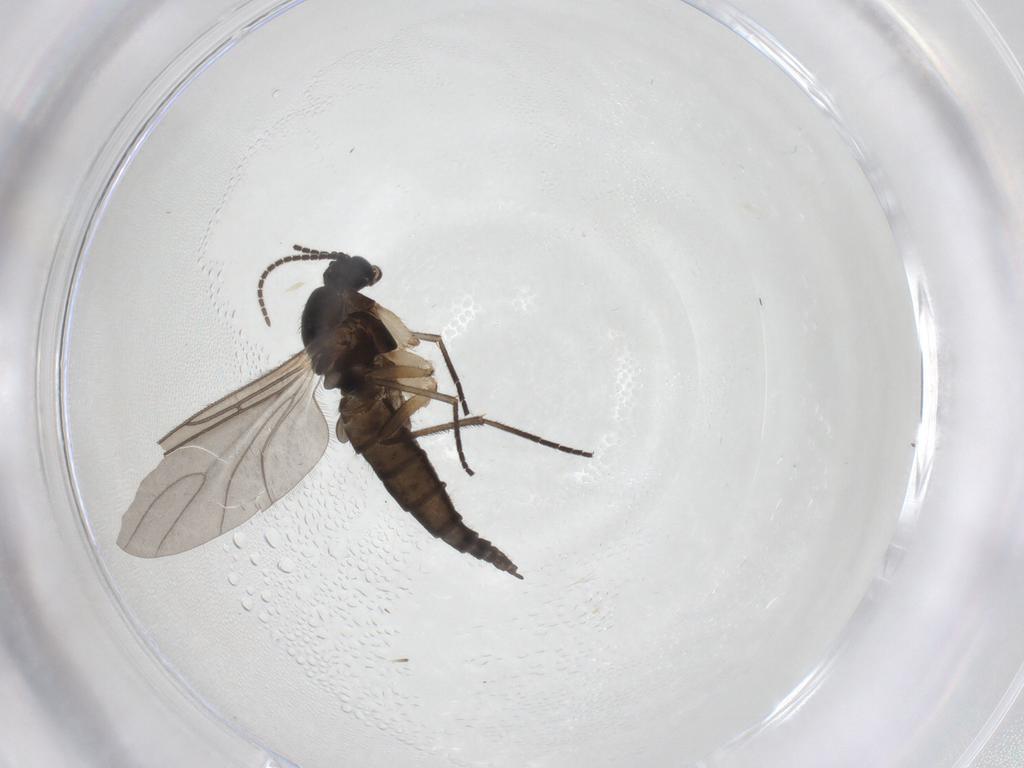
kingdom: Animalia
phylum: Arthropoda
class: Insecta
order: Diptera
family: Sciaridae
